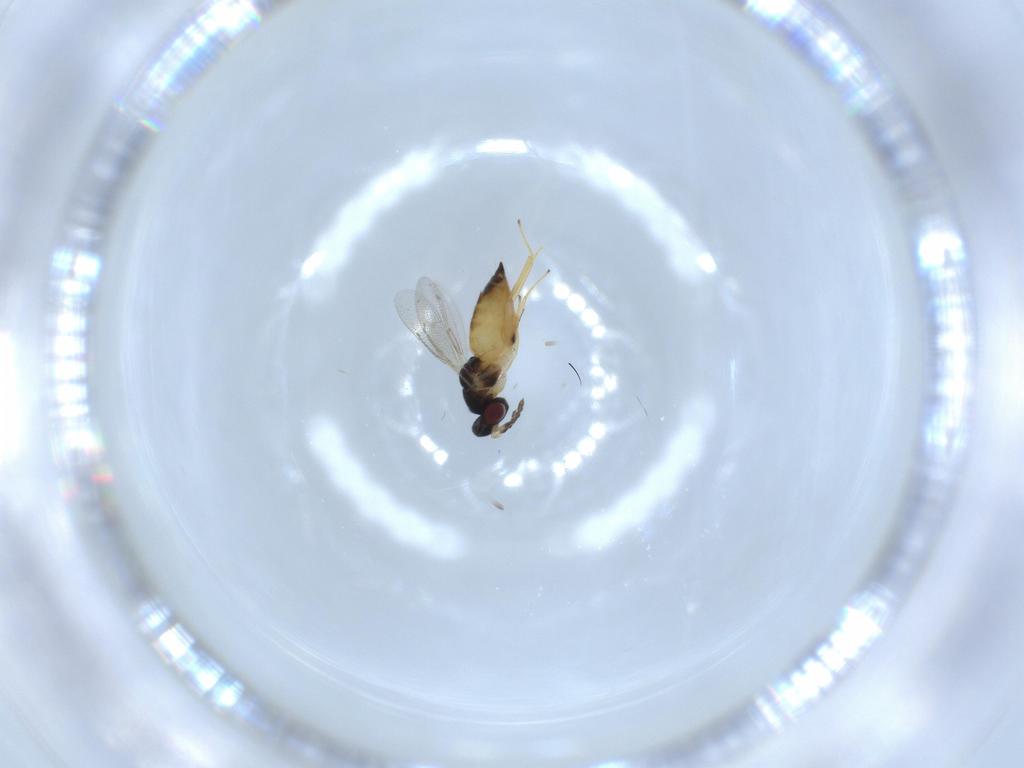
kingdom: Animalia
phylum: Arthropoda
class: Insecta
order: Hymenoptera
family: Eulophidae
